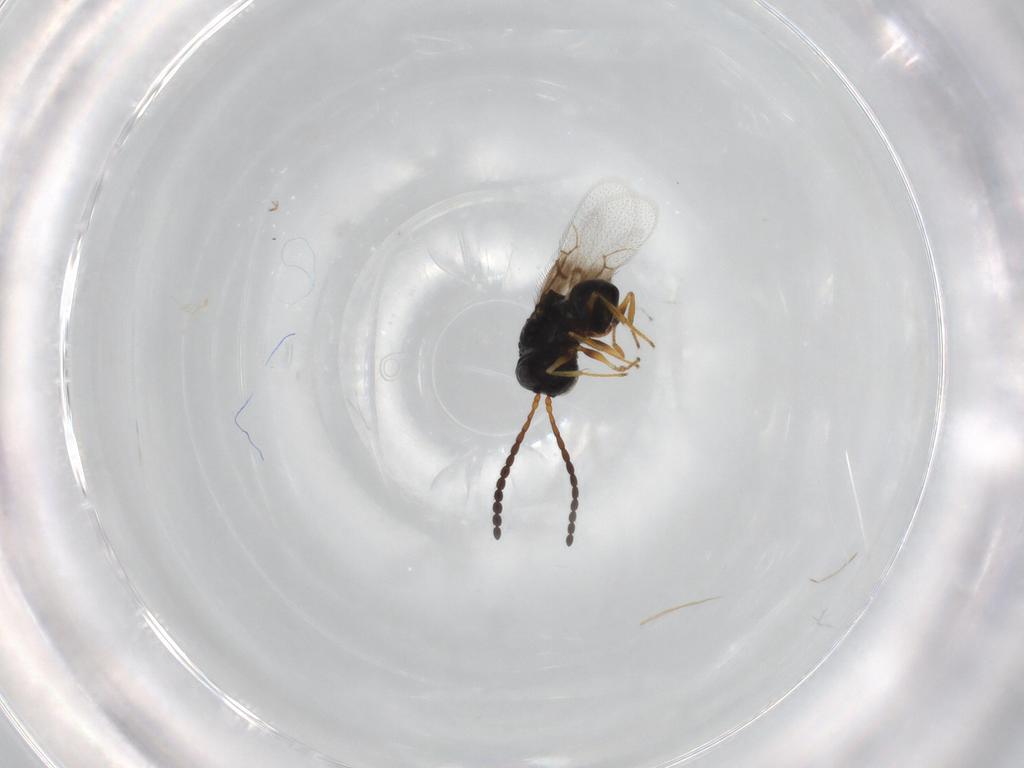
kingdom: Animalia
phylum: Arthropoda
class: Insecta
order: Hymenoptera
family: Figitidae
